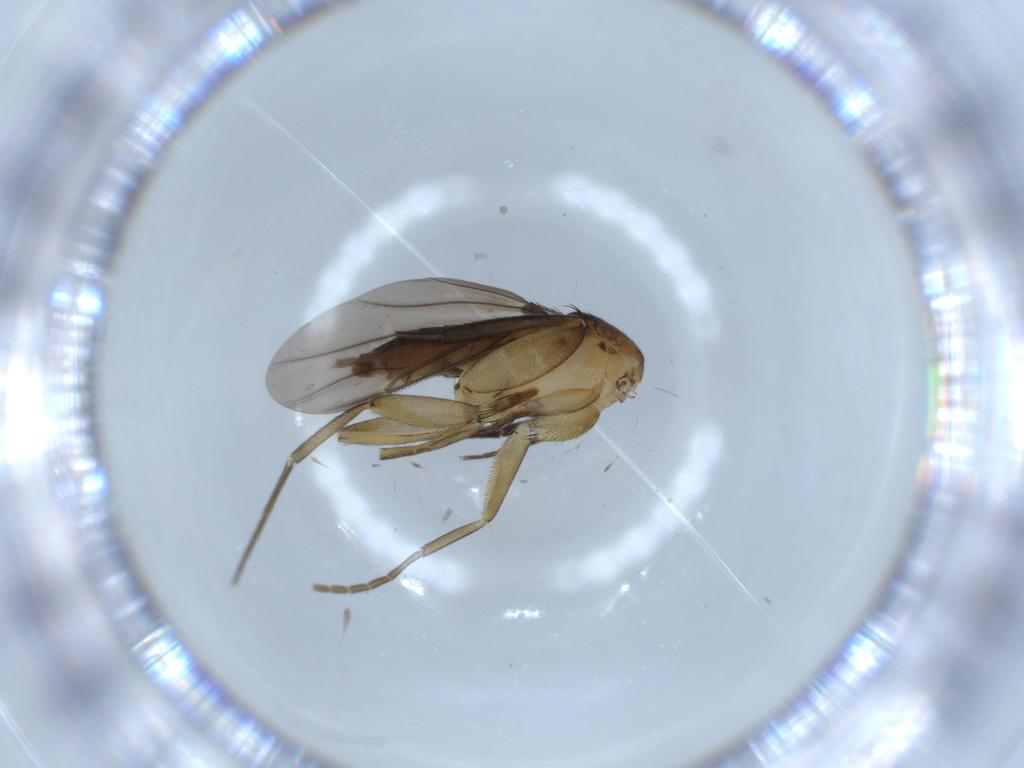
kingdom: Animalia
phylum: Arthropoda
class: Insecta
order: Diptera
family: Phoridae
